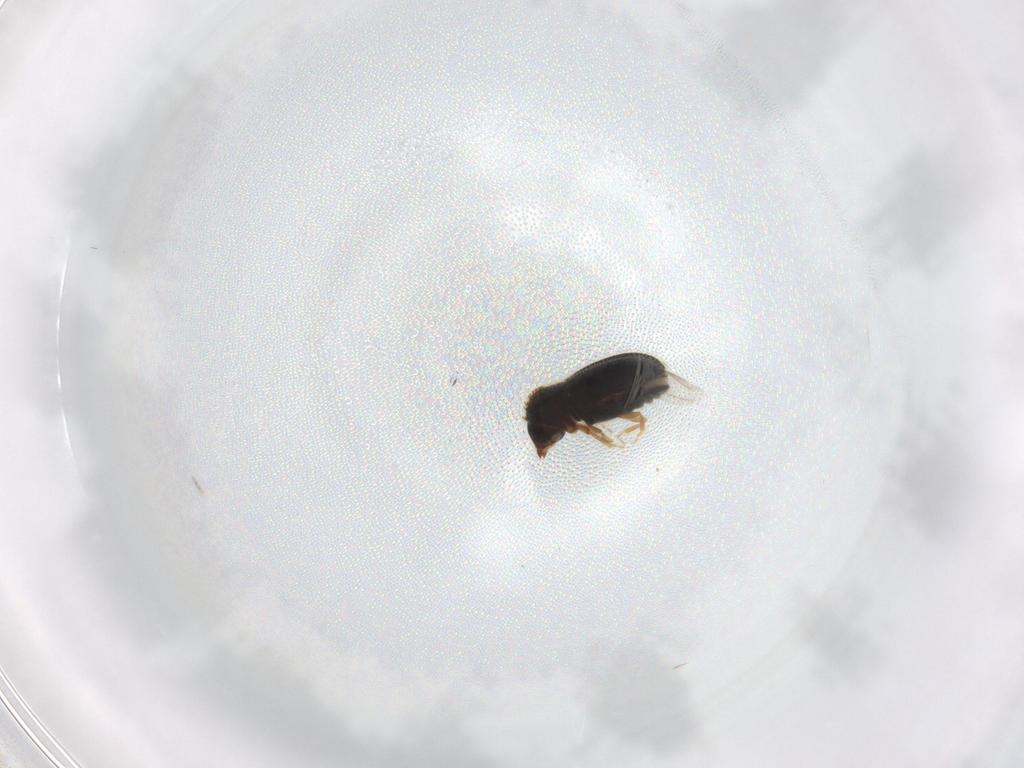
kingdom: Animalia
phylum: Arthropoda
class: Insecta
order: Coleoptera
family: Curculionidae
